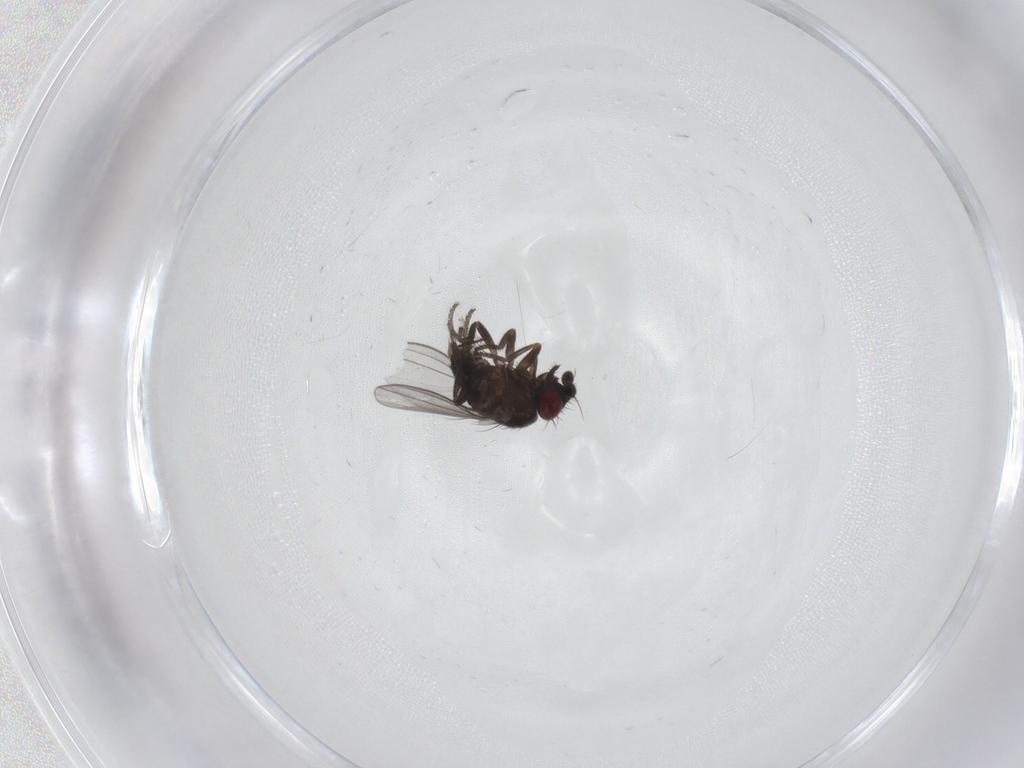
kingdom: Animalia
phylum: Arthropoda
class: Insecta
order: Diptera
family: Milichiidae
